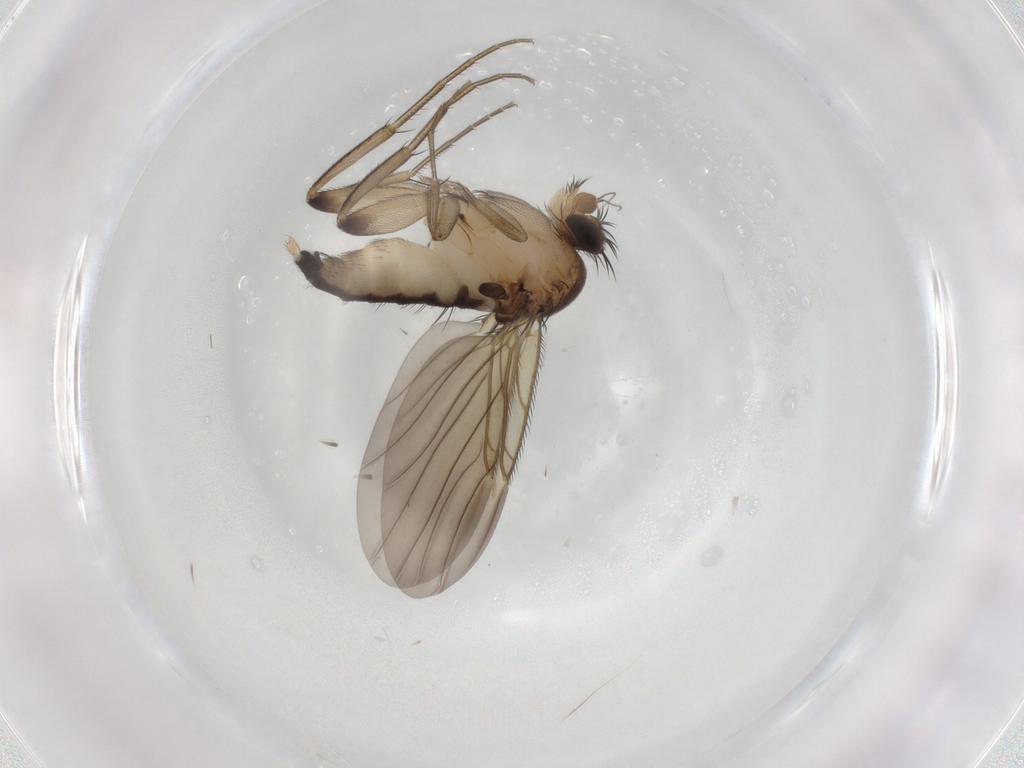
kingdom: Animalia
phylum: Arthropoda
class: Insecta
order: Diptera
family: Phoridae
